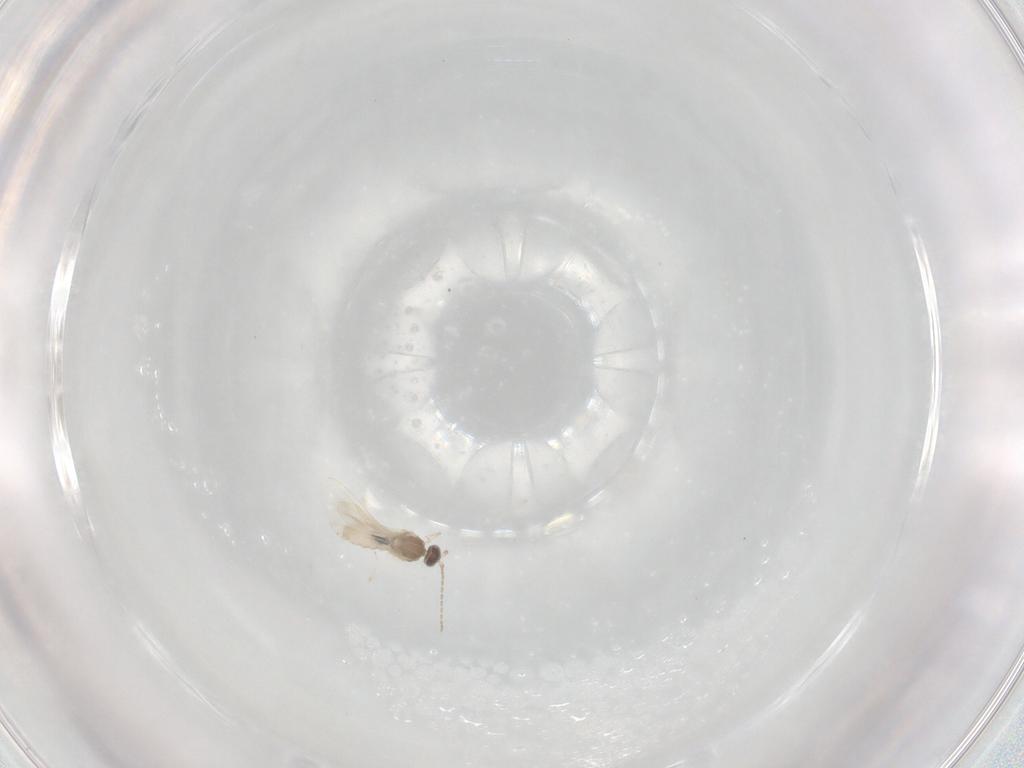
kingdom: Animalia
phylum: Arthropoda
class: Insecta
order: Diptera
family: Cecidomyiidae
